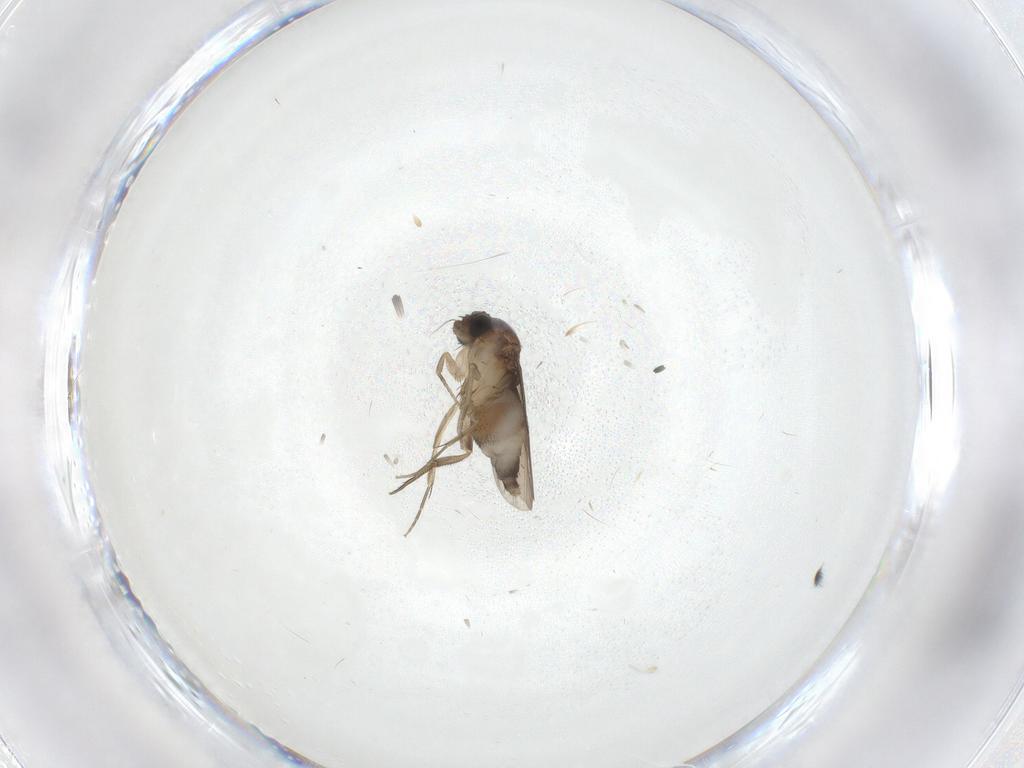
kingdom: Animalia
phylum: Arthropoda
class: Insecta
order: Diptera
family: Phoridae
